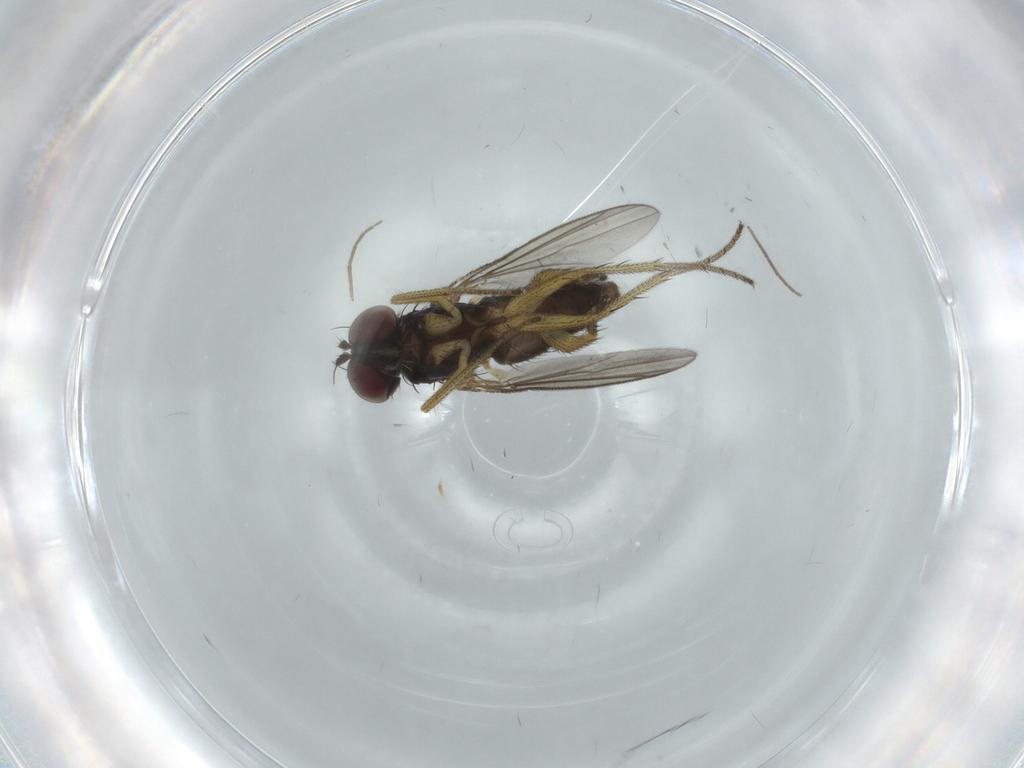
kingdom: Animalia
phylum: Arthropoda
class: Insecta
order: Diptera
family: Dolichopodidae
